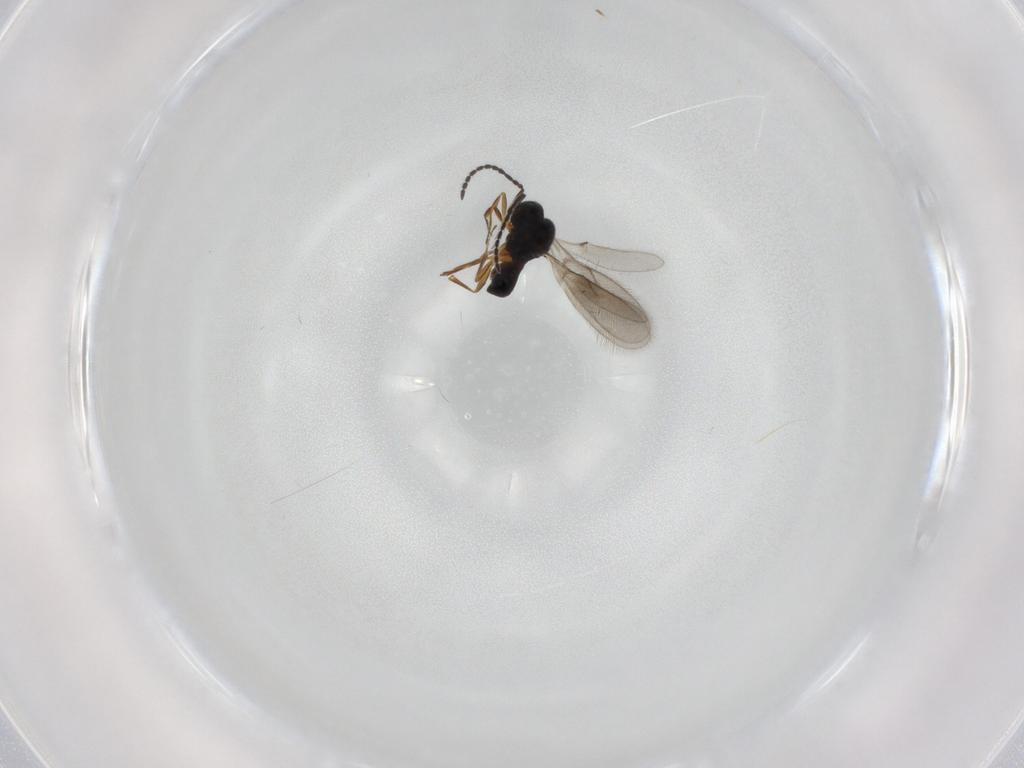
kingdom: Animalia
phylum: Arthropoda
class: Insecta
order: Hymenoptera
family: Scelionidae
